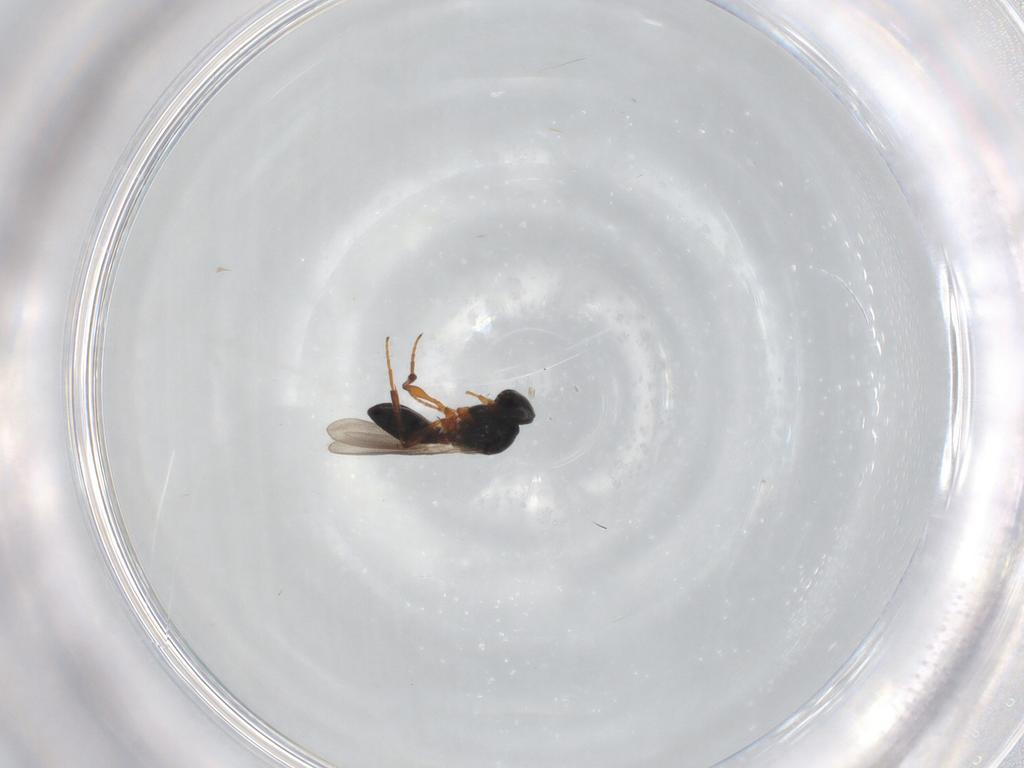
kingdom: Animalia
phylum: Arthropoda
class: Insecta
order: Hymenoptera
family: Platygastridae
